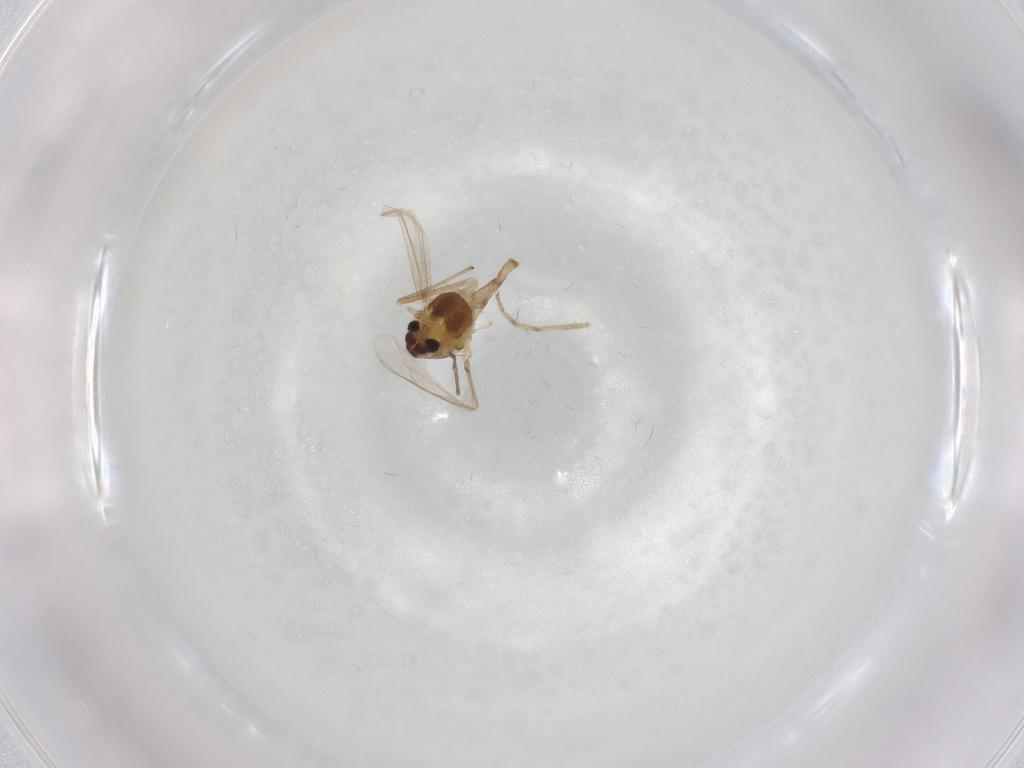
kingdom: Animalia
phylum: Arthropoda
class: Insecta
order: Diptera
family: Chironomidae
